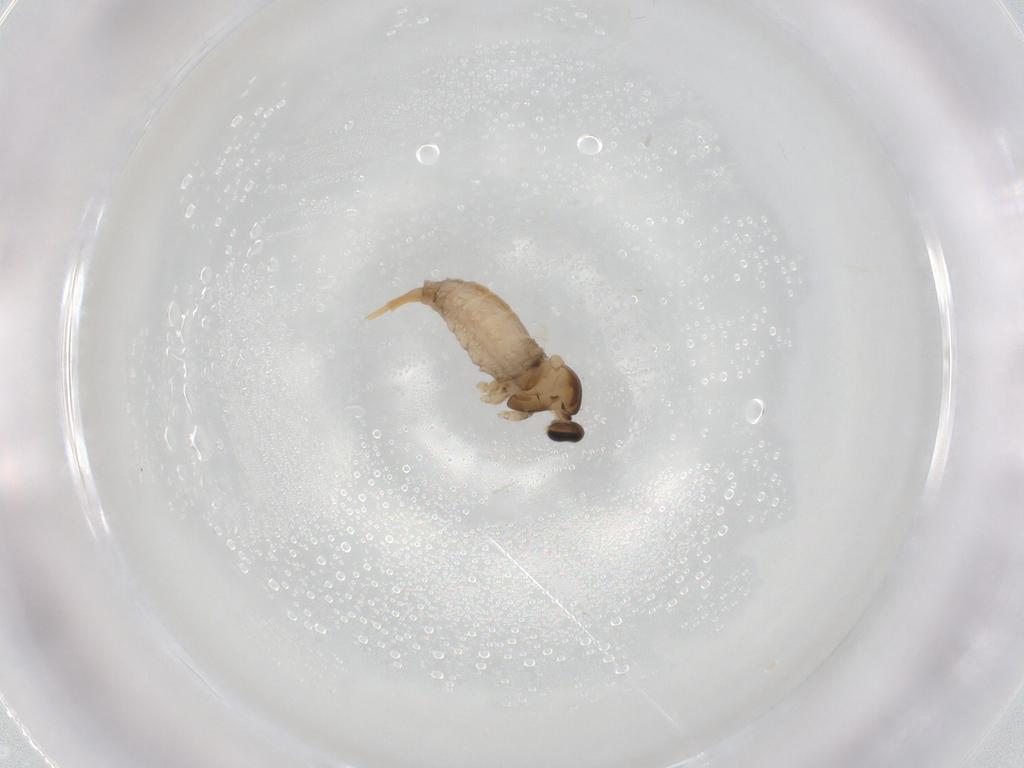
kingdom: Animalia
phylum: Arthropoda
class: Insecta
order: Diptera
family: Cecidomyiidae
